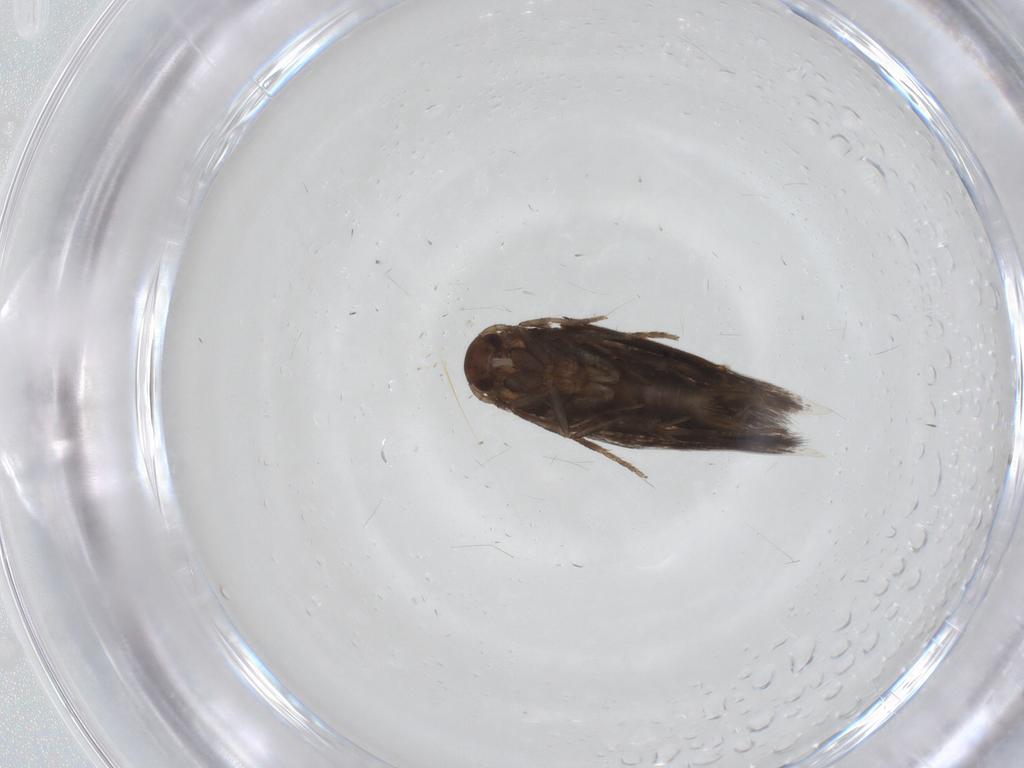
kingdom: Animalia
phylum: Arthropoda
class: Insecta
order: Lepidoptera
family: Elachistidae
